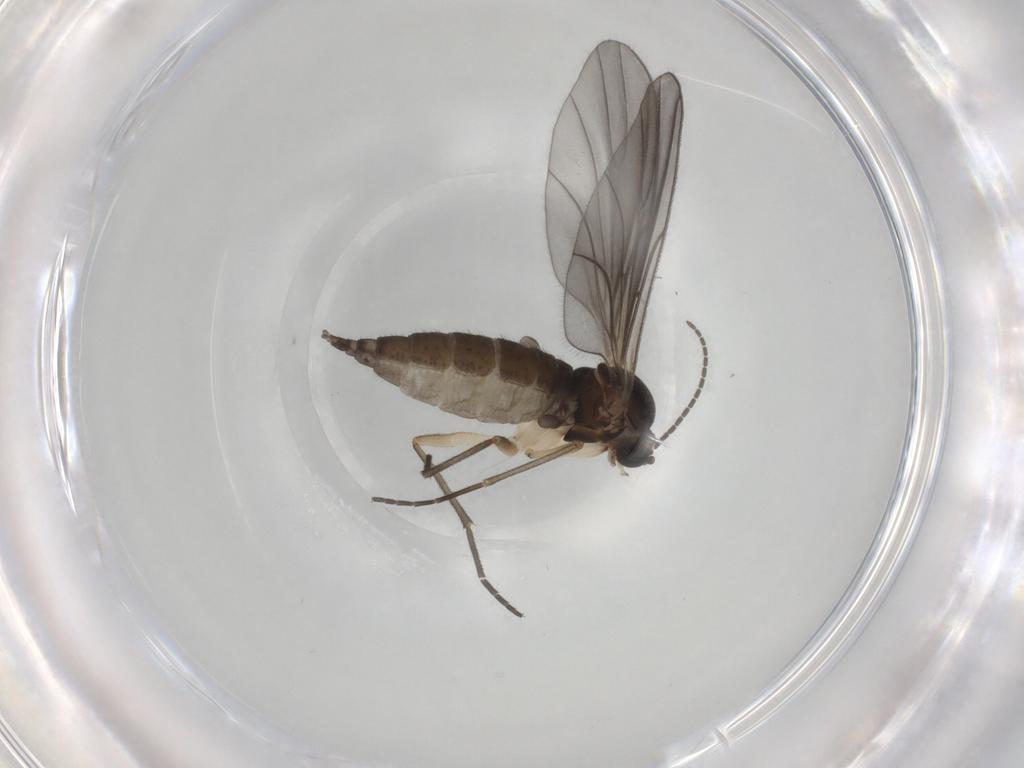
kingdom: Animalia
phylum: Arthropoda
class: Insecta
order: Diptera
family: Sciaridae
